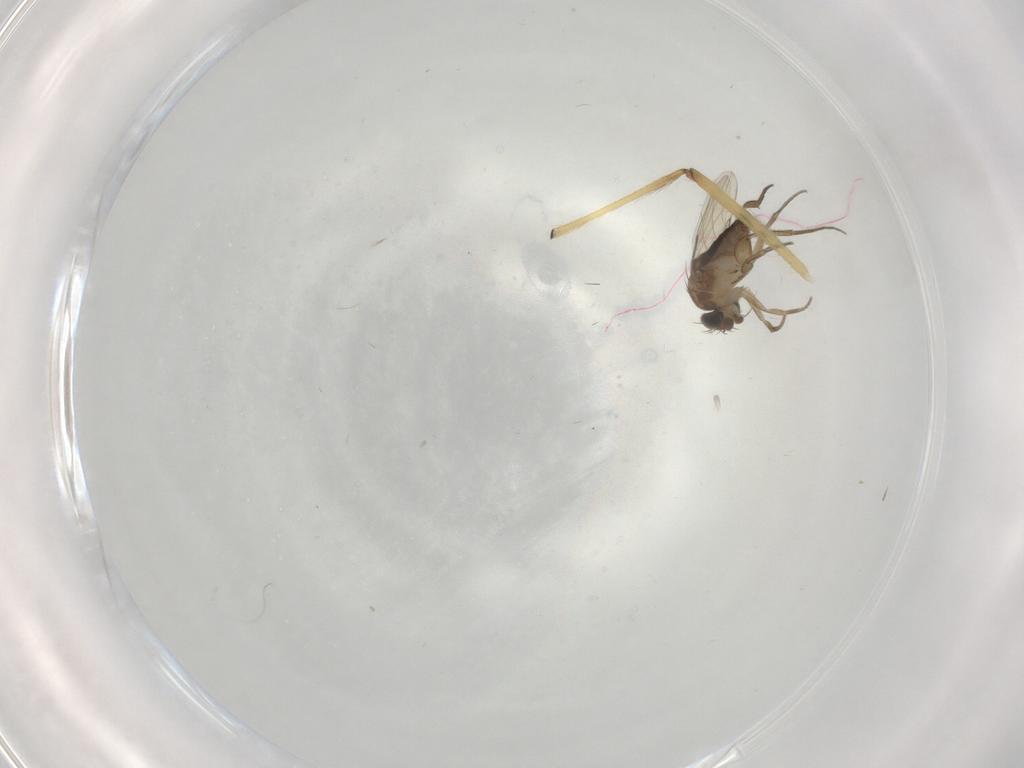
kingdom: Animalia
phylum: Arthropoda
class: Insecta
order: Diptera
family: Phoridae
